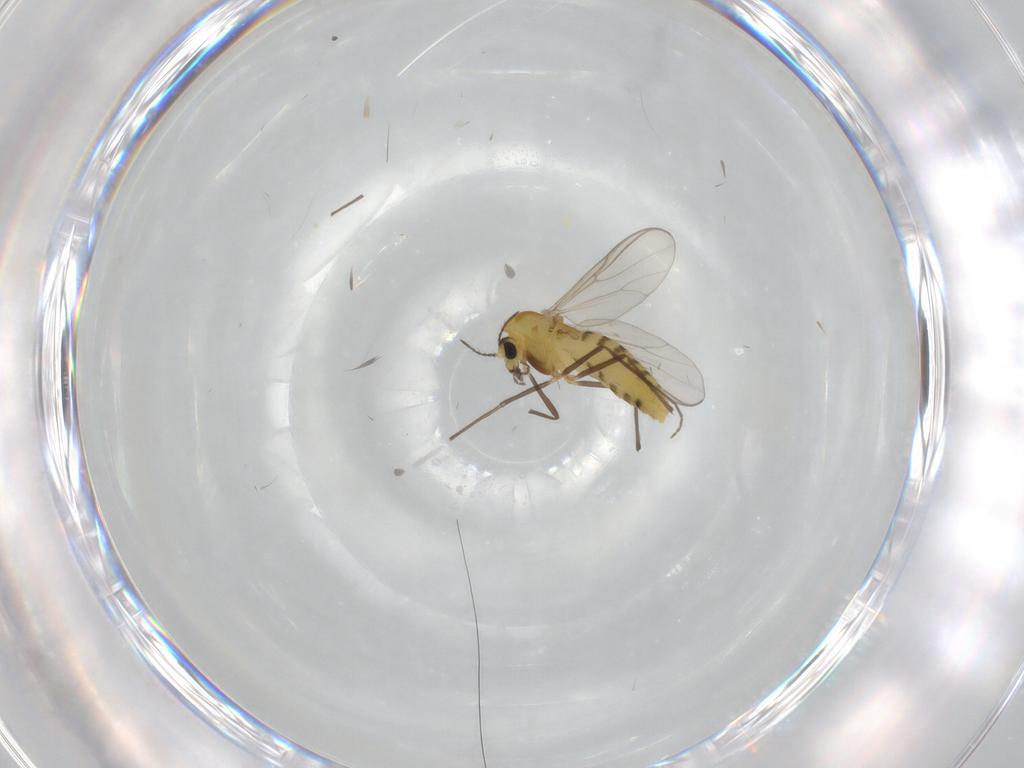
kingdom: Animalia
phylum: Arthropoda
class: Insecta
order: Diptera
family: Chironomidae
